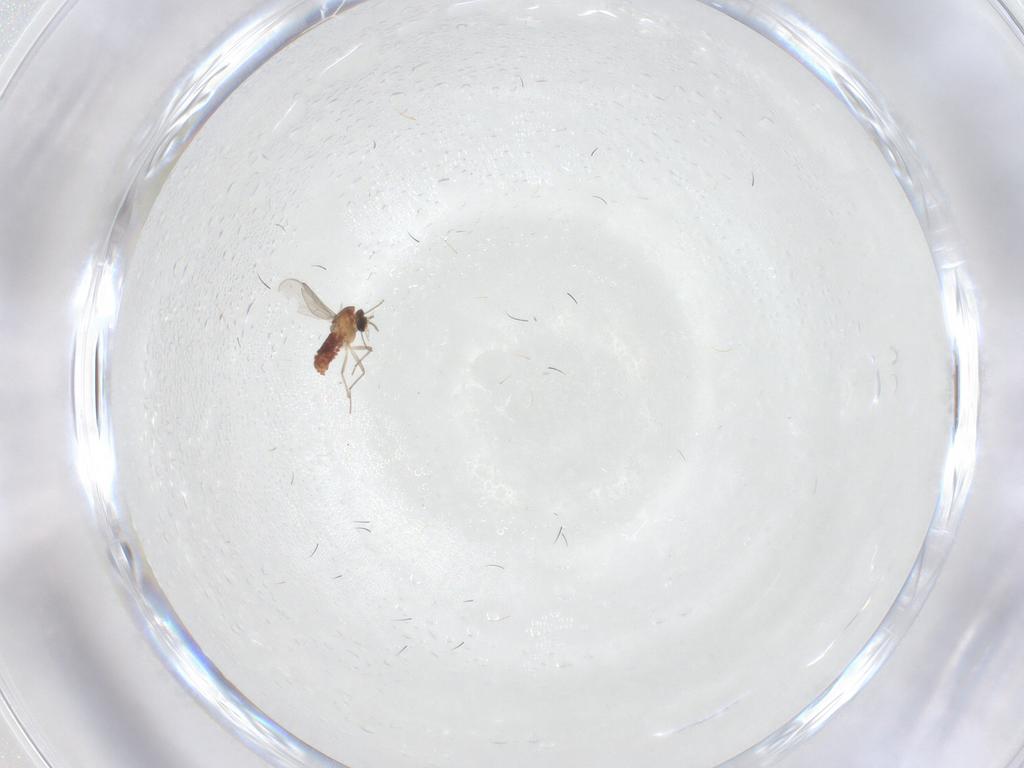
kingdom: Animalia
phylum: Arthropoda
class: Insecta
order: Diptera
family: Chironomidae
